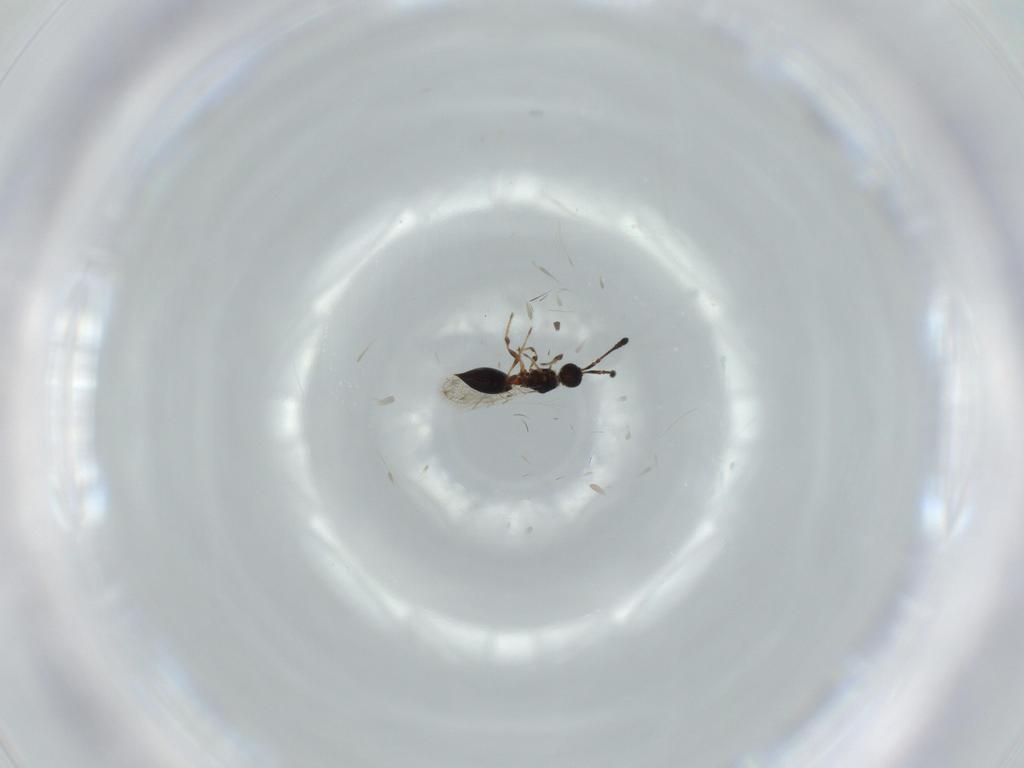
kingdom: Animalia
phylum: Arthropoda
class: Insecta
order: Hymenoptera
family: Diapriidae
